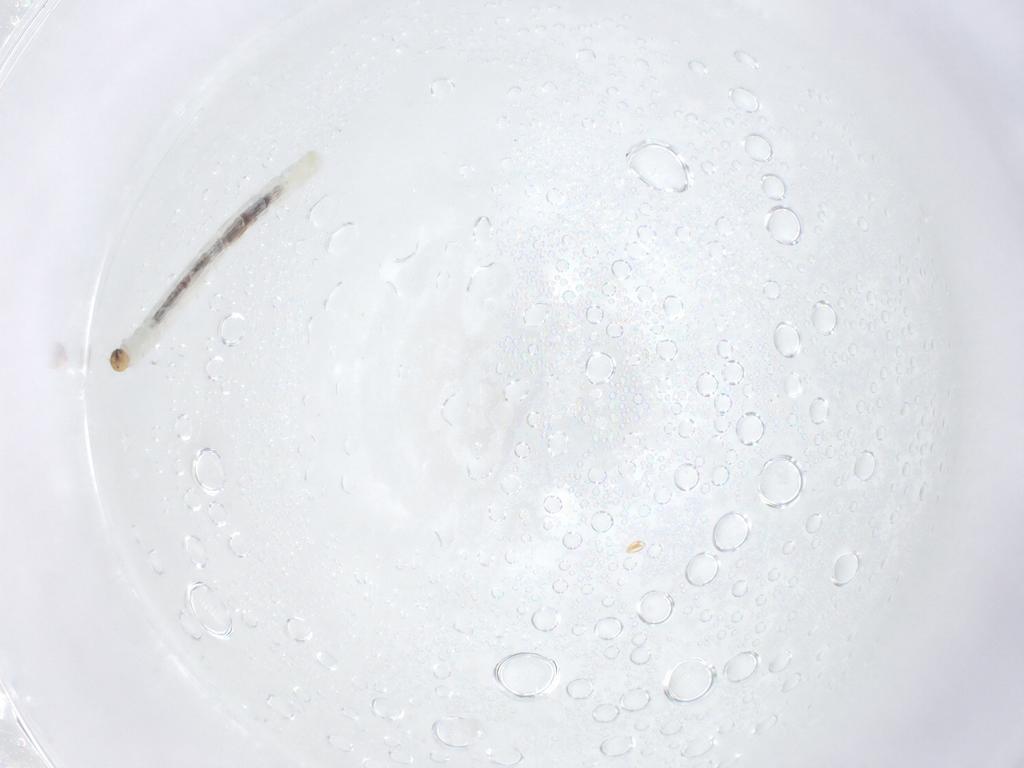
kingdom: Animalia
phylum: Arthropoda
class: Insecta
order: Diptera
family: Chironomidae
